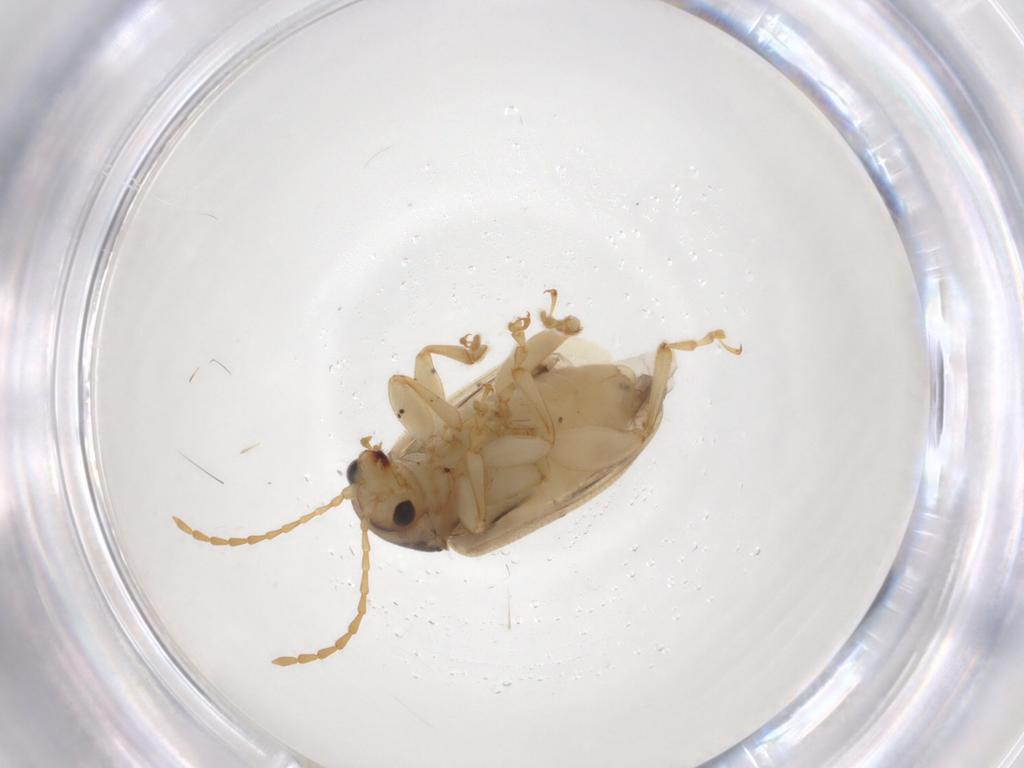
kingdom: Animalia
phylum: Arthropoda
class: Insecta
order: Coleoptera
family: Chrysomelidae
